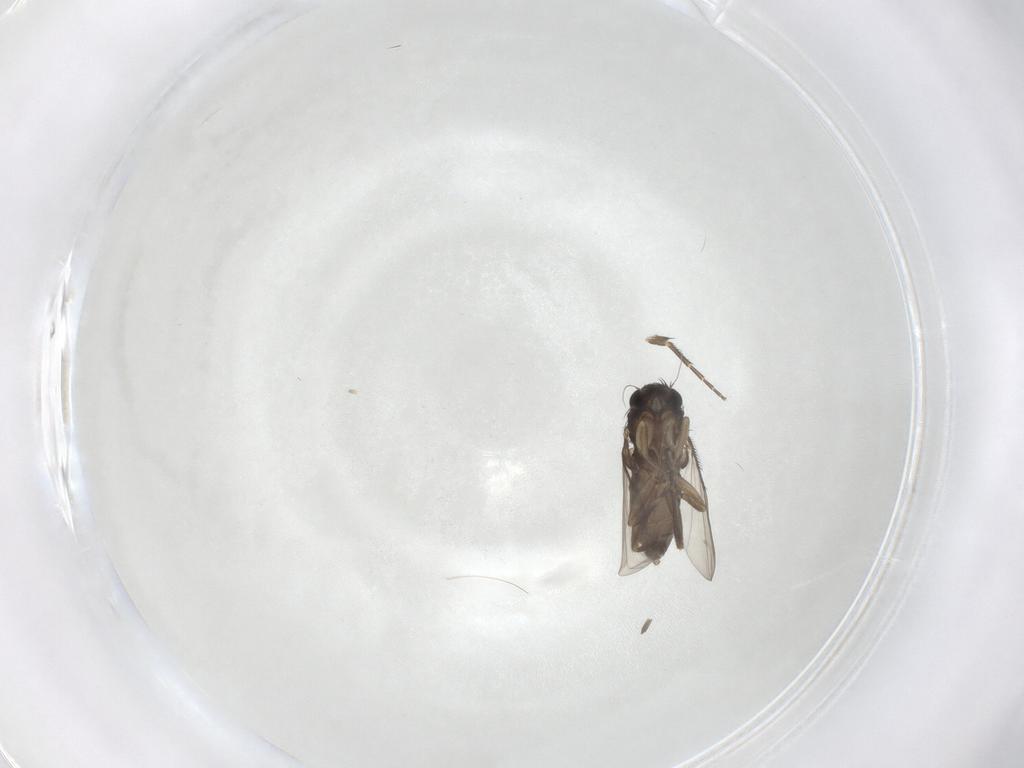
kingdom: Animalia
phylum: Arthropoda
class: Insecta
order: Diptera
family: Phoridae
